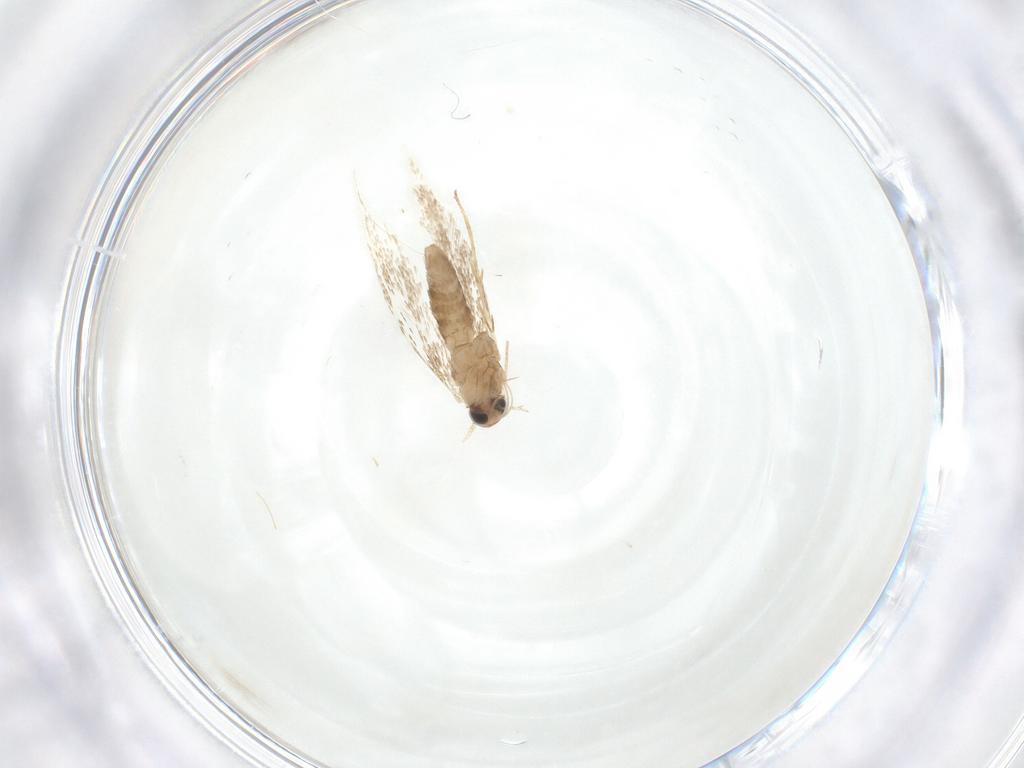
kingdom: Animalia
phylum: Arthropoda
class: Insecta
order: Lepidoptera
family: Tortricidae
